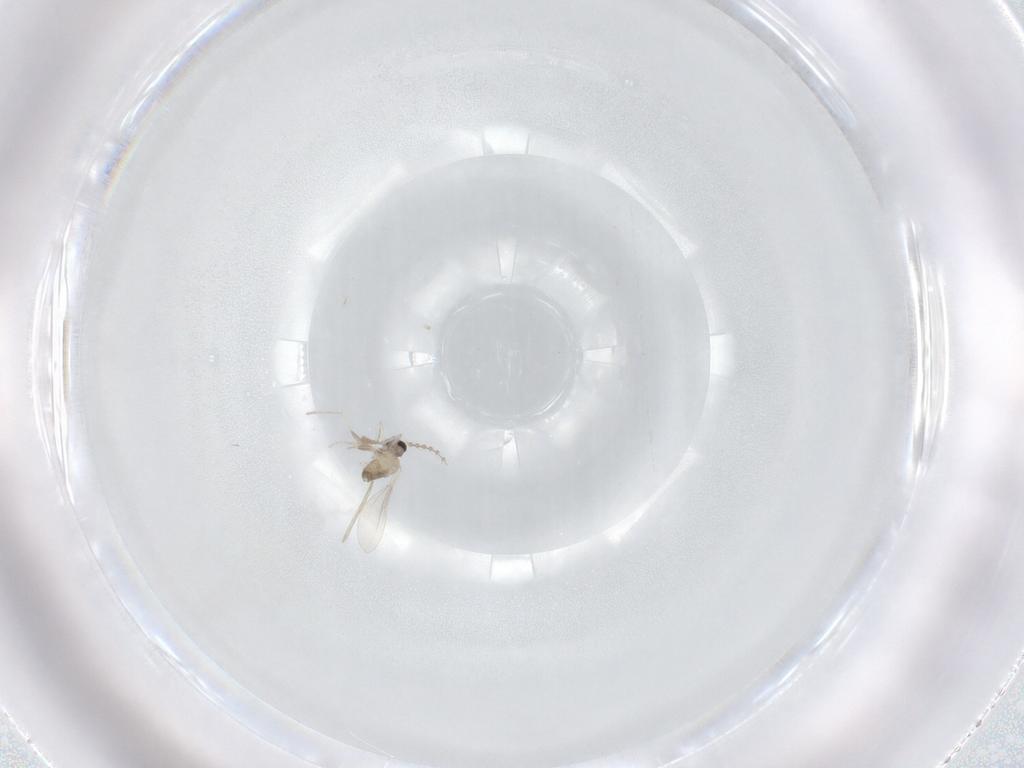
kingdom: Animalia
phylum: Arthropoda
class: Insecta
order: Diptera
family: Cecidomyiidae
